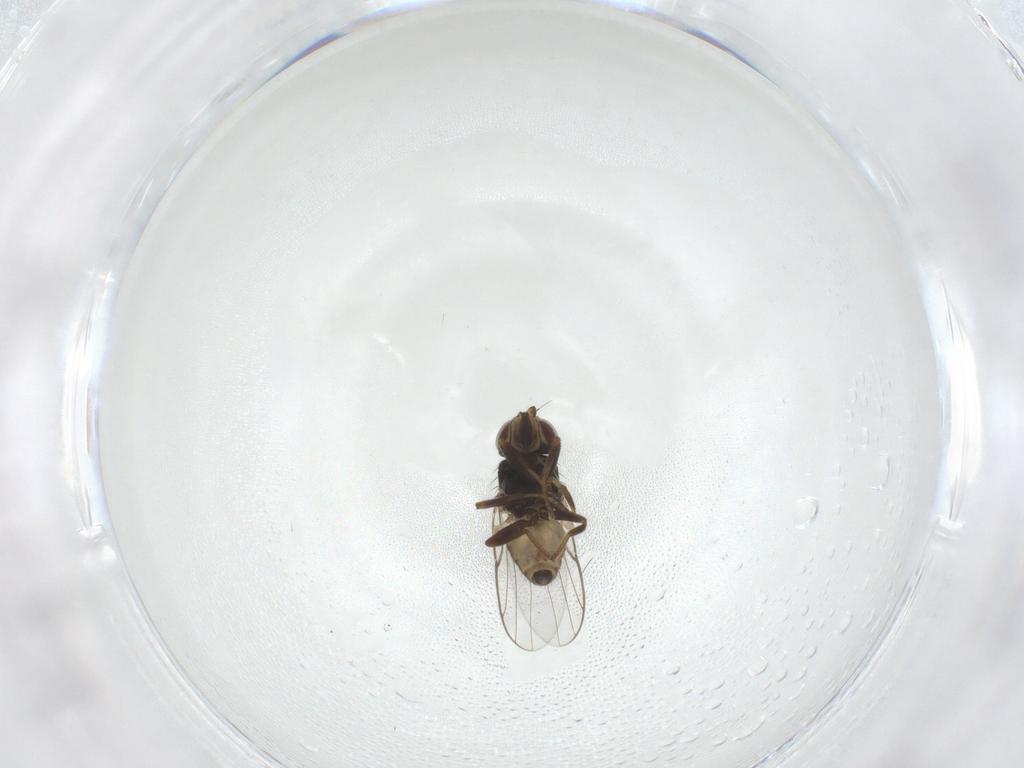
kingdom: Animalia
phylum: Arthropoda
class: Insecta
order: Diptera
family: Chloropidae
